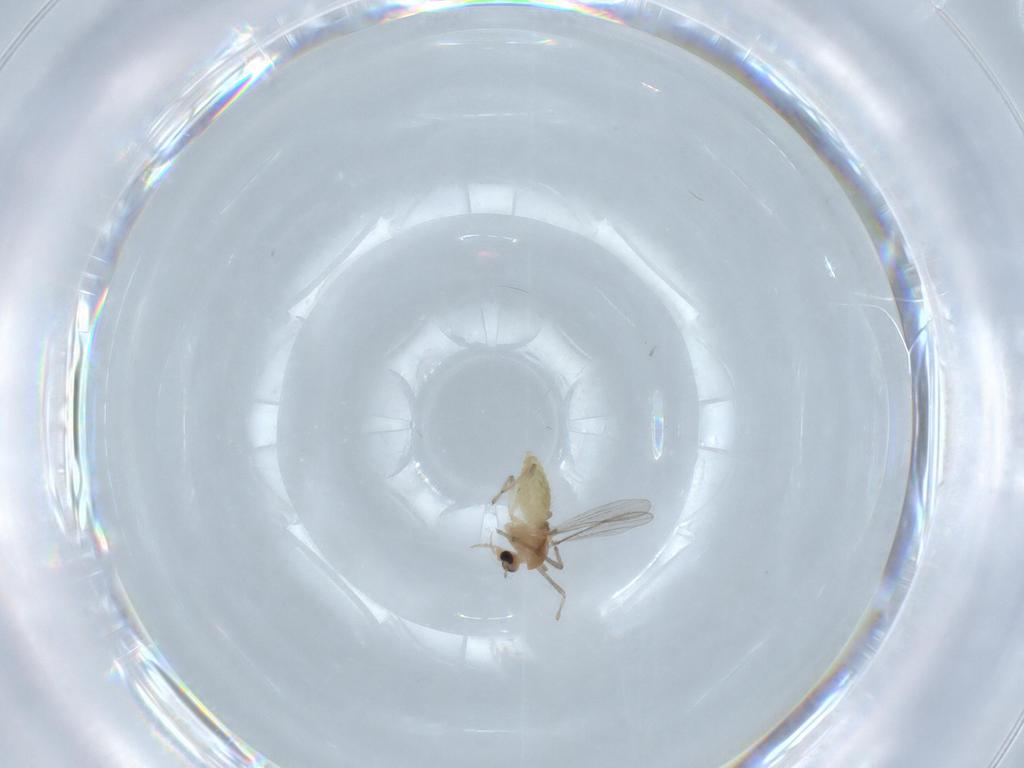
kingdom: Animalia
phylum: Arthropoda
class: Insecta
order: Diptera
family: Chironomidae
